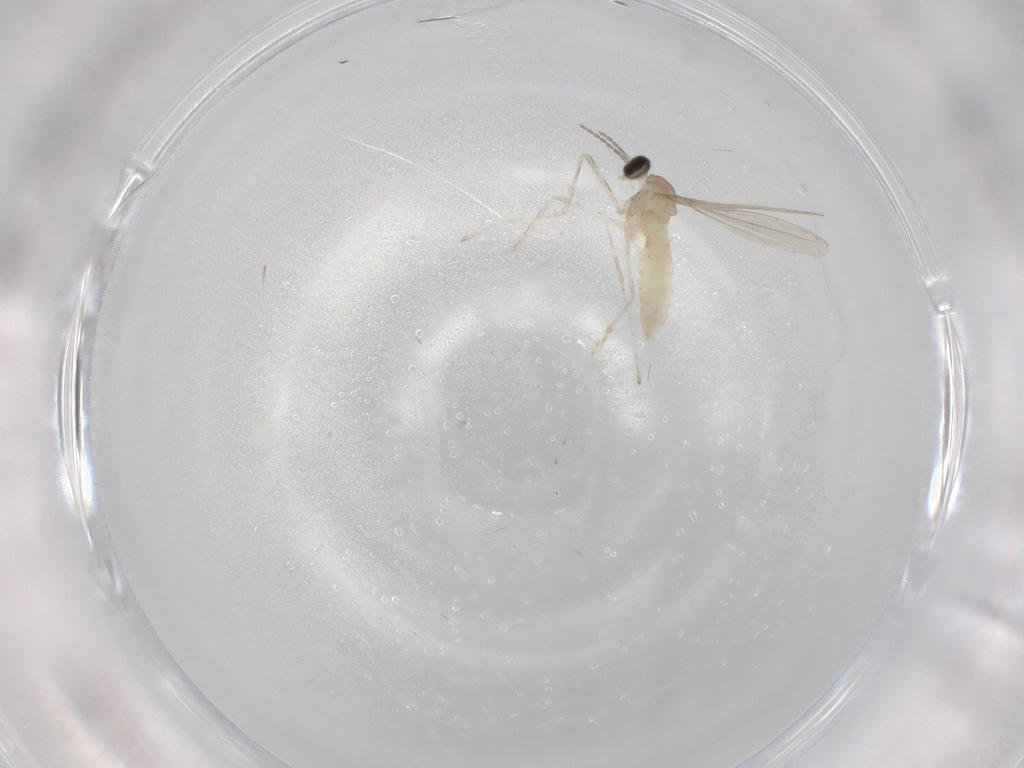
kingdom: Animalia
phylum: Arthropoda
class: Insecta
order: Diptera
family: Cecidomyiidae
